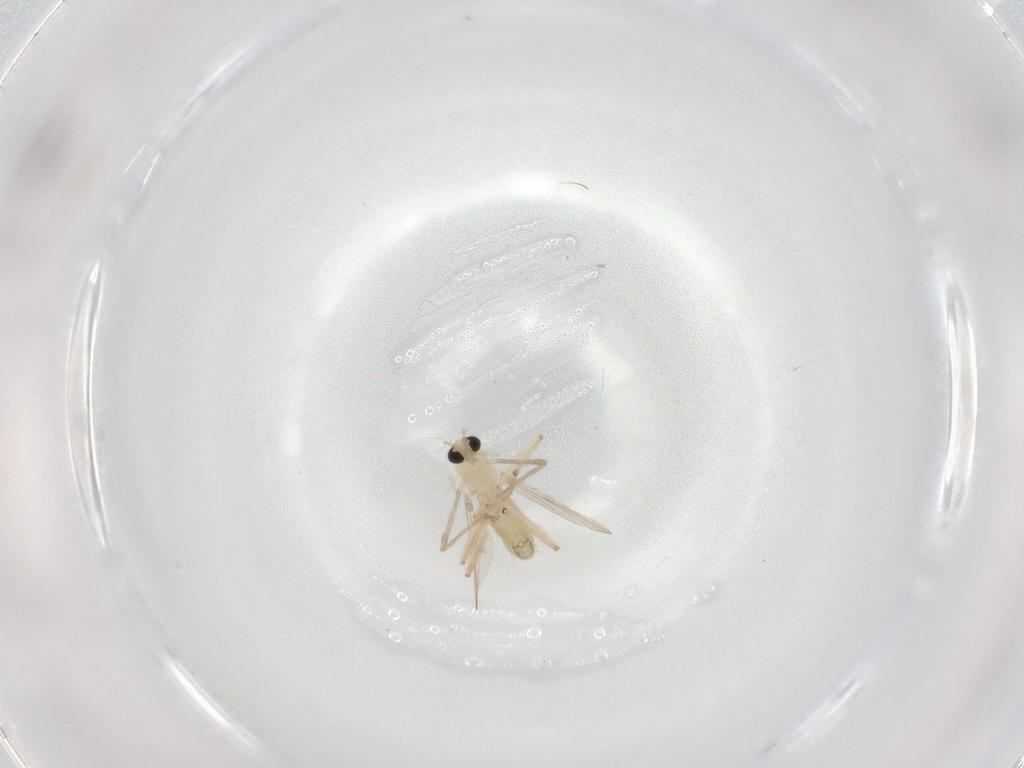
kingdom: Animalia
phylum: Arthropoda
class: Insecta
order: Diptera
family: Chironomidae
